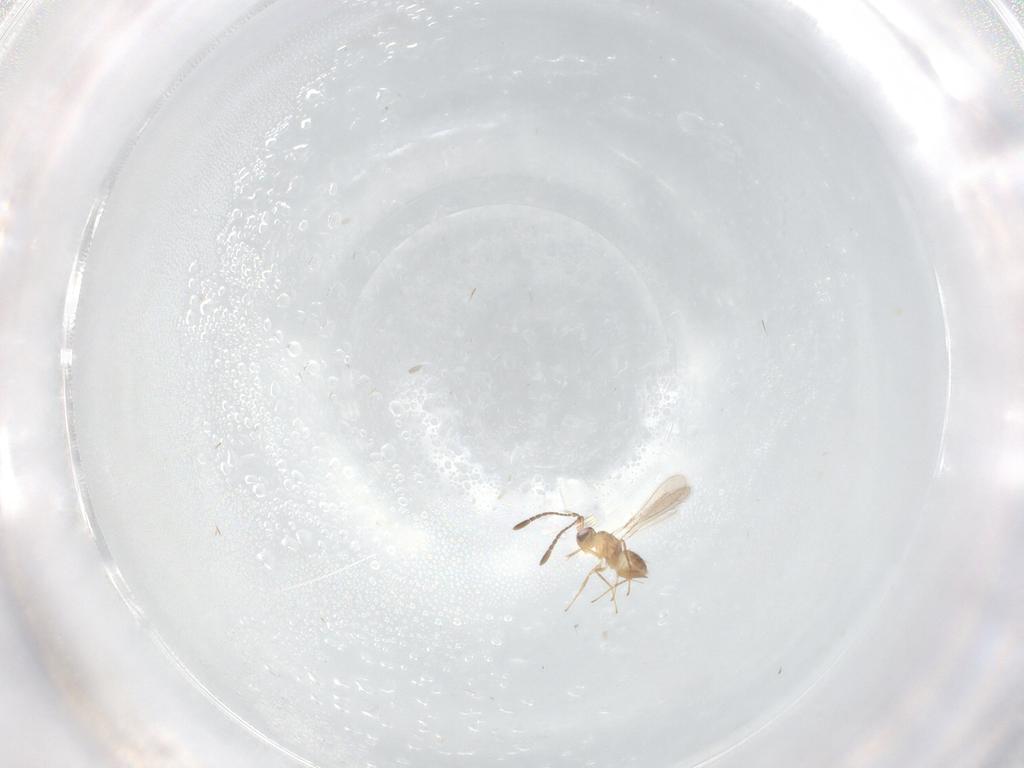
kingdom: Animalia
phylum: Arthropoda
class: Insecta
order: Hymenoptera
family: Mymaridae
